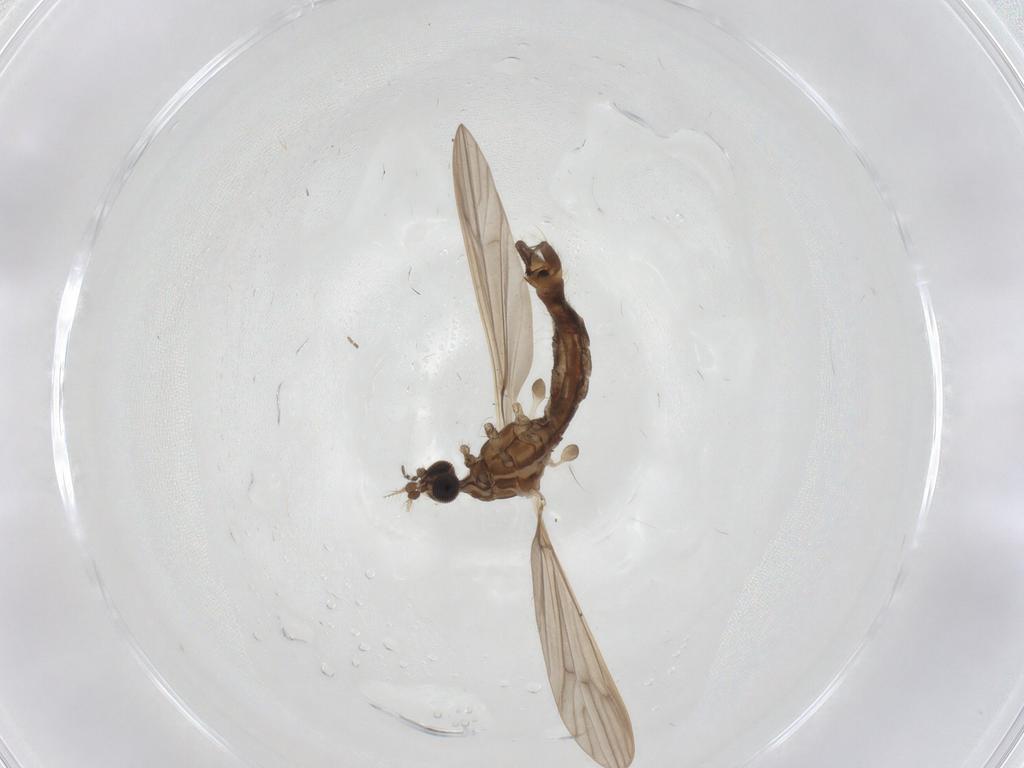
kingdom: Animalia
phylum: Arthropoda
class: Insecta
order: Diptera
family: Limoniidae
